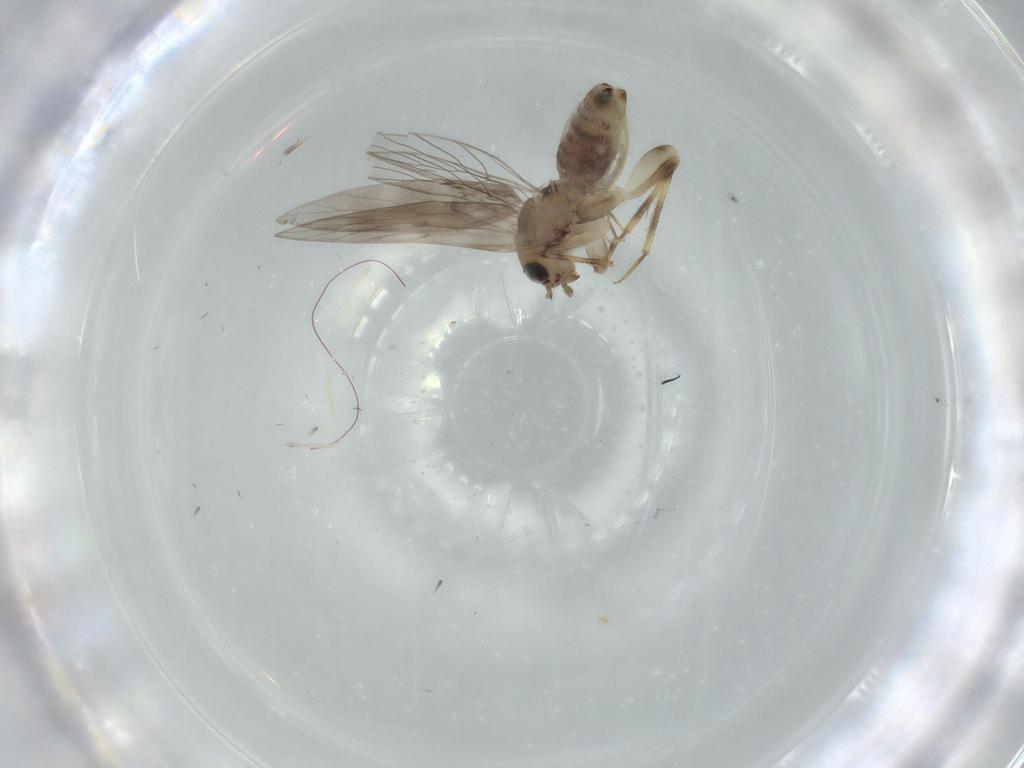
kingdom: Animalia
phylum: Arthropoda
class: Insecta
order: Psocodea
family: Lepidopsocidae
